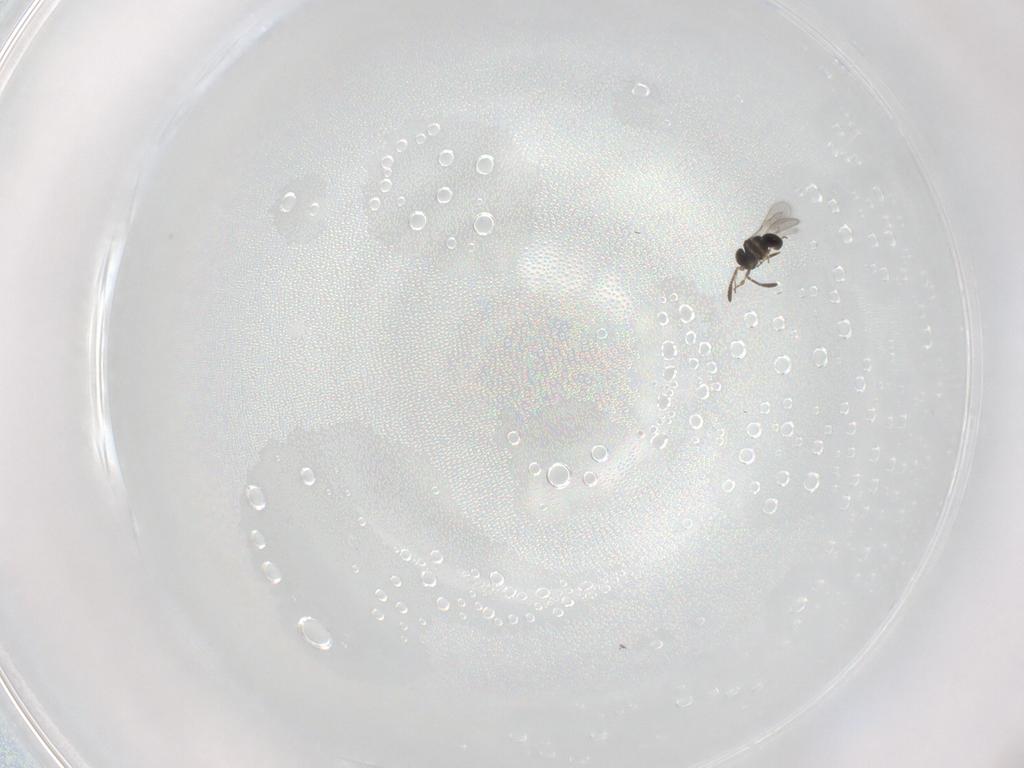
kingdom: Animalia
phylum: Arthropoda
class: Insecta
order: Hymenoptera
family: Scelionidae
